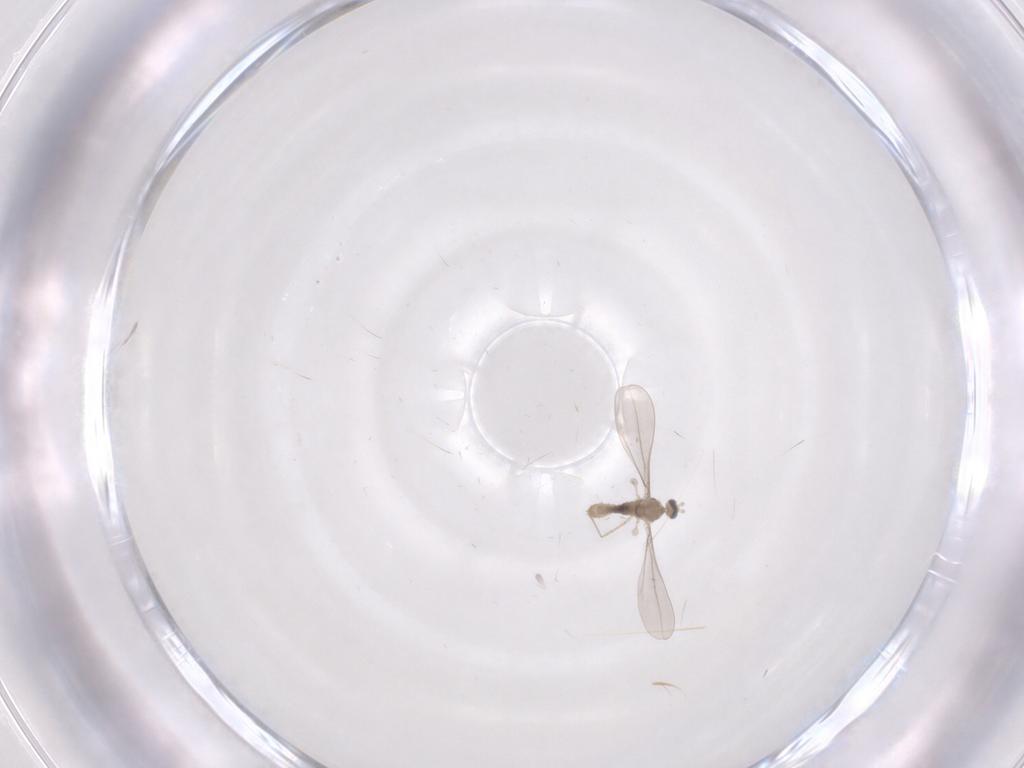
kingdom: Animalia
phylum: Arthropoda
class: Insecta
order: Diptera
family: Cecidomyiidae
